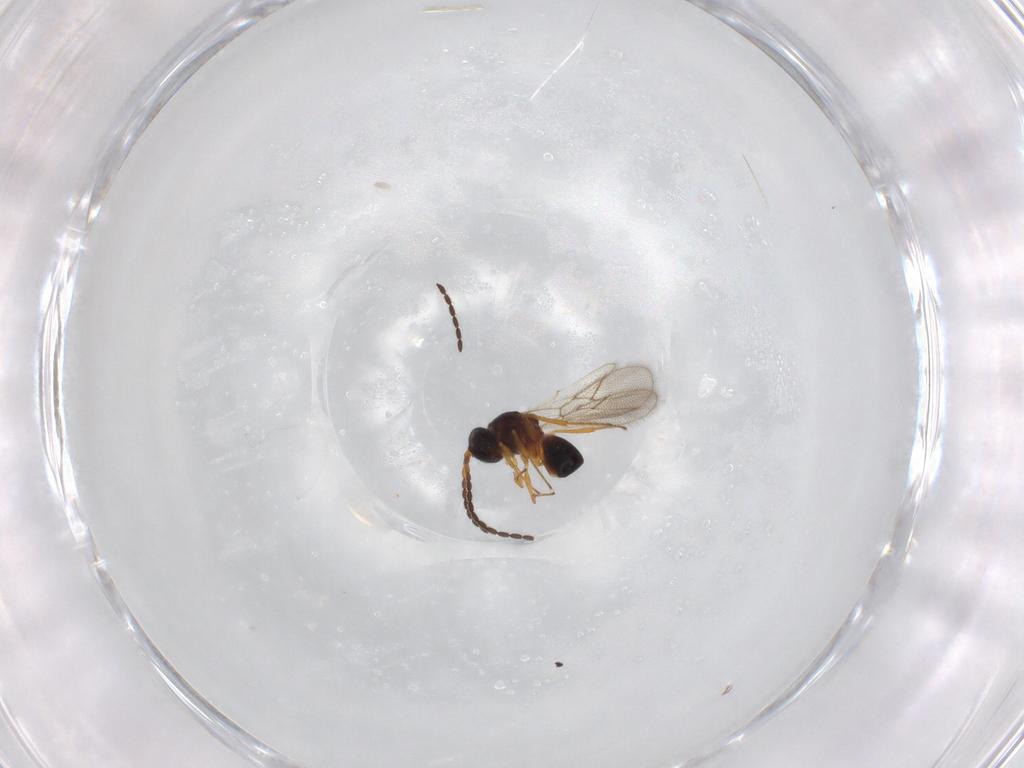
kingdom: Animalia
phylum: Arthropoda
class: Insecta
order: Hymenoptera
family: Figitidae
